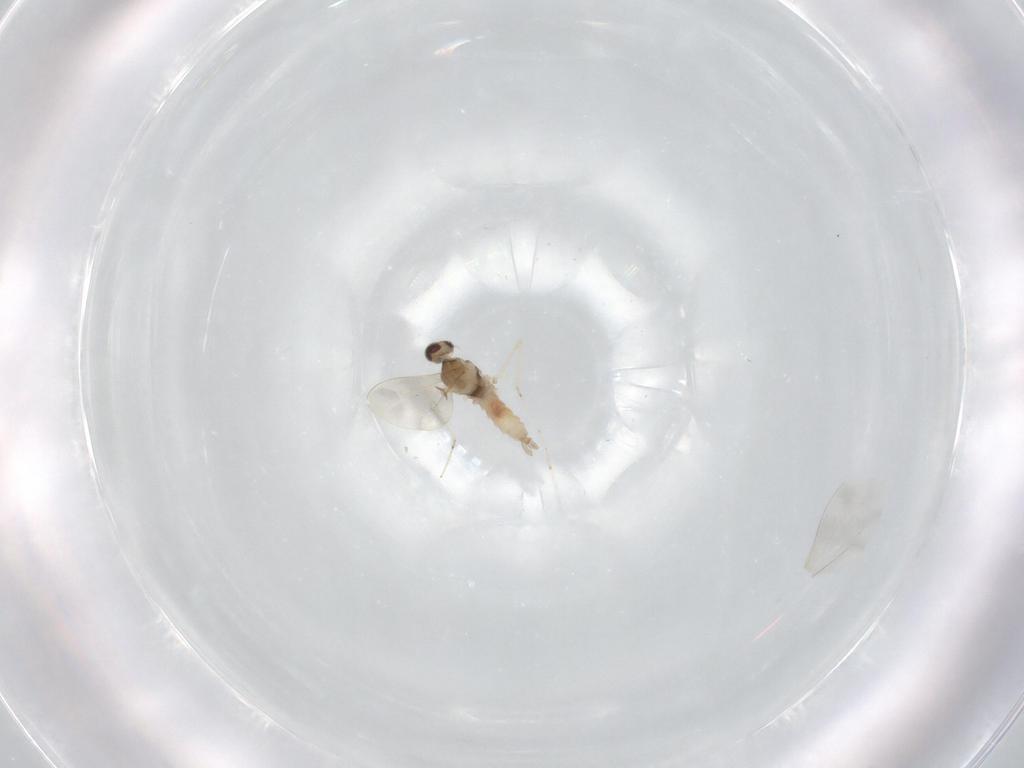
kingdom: Animalia
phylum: Arthropoda
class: Insecta
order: Diptera
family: Cecidomyiidae
